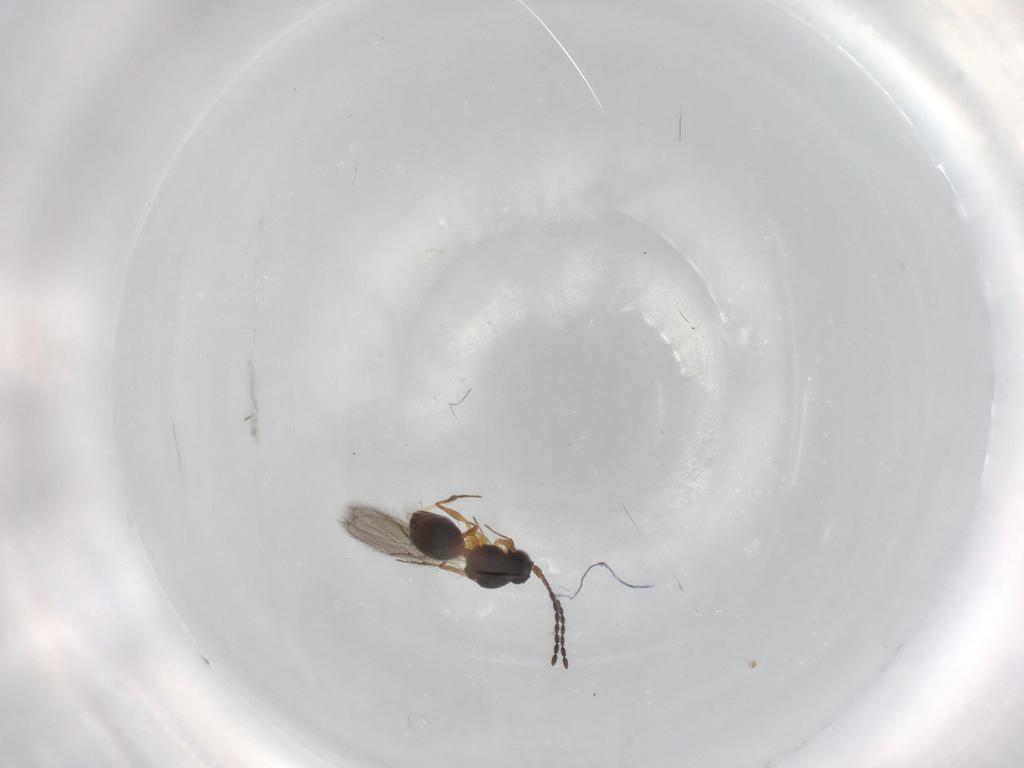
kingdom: Animalia
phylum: Arthropoda
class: Insecta
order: Hymenoptera
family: Figitidae
